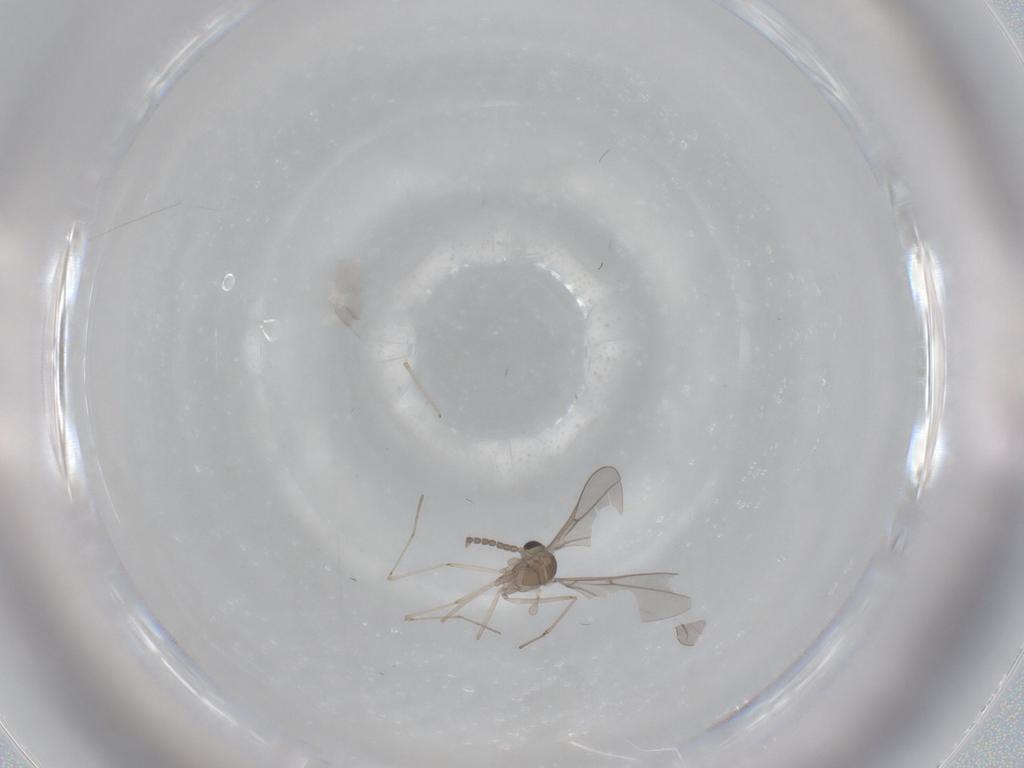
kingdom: Animalia
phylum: Arthropoda
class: Insecta
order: Diptera
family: Cecidomyiidae
